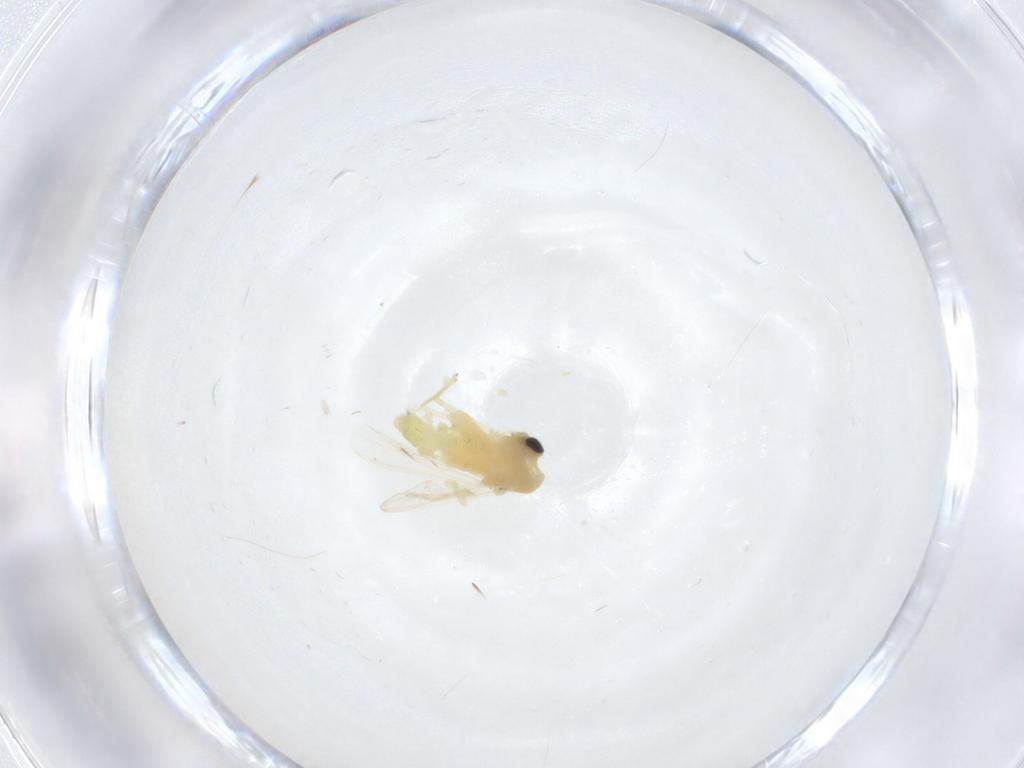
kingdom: Animalia
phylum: Arthropoda
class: Insecta
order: Diptera
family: Chironomidae
